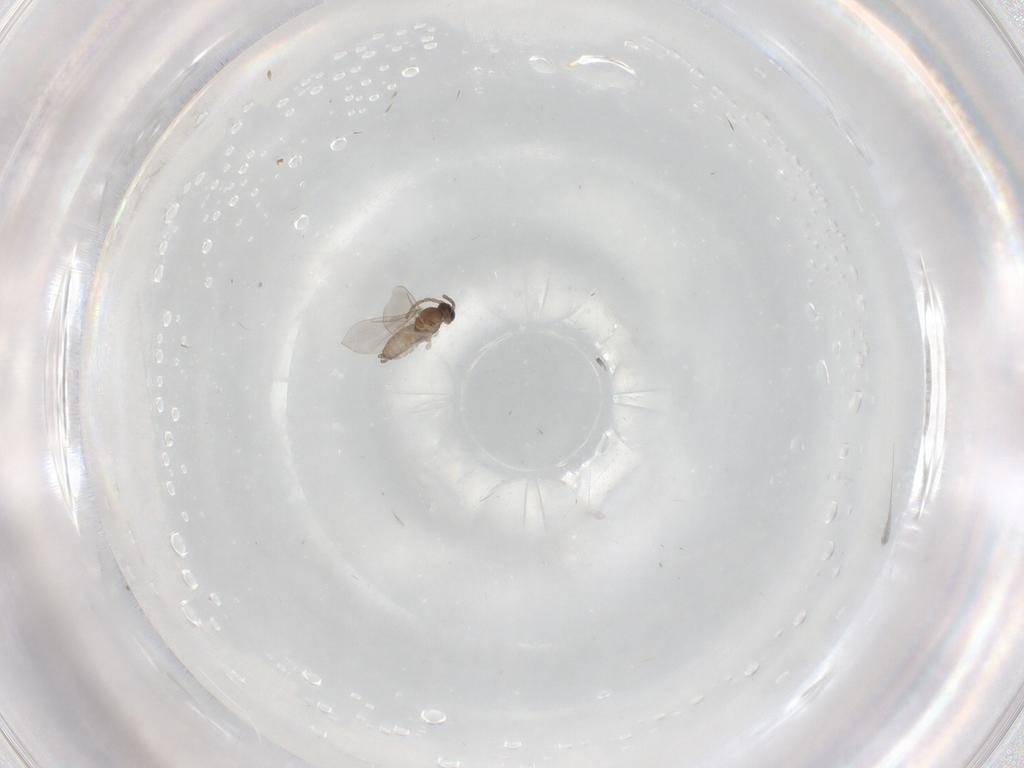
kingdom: Animalia
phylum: Arthropoda
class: Insecta
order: Diptera
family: Cecidomyiidae
